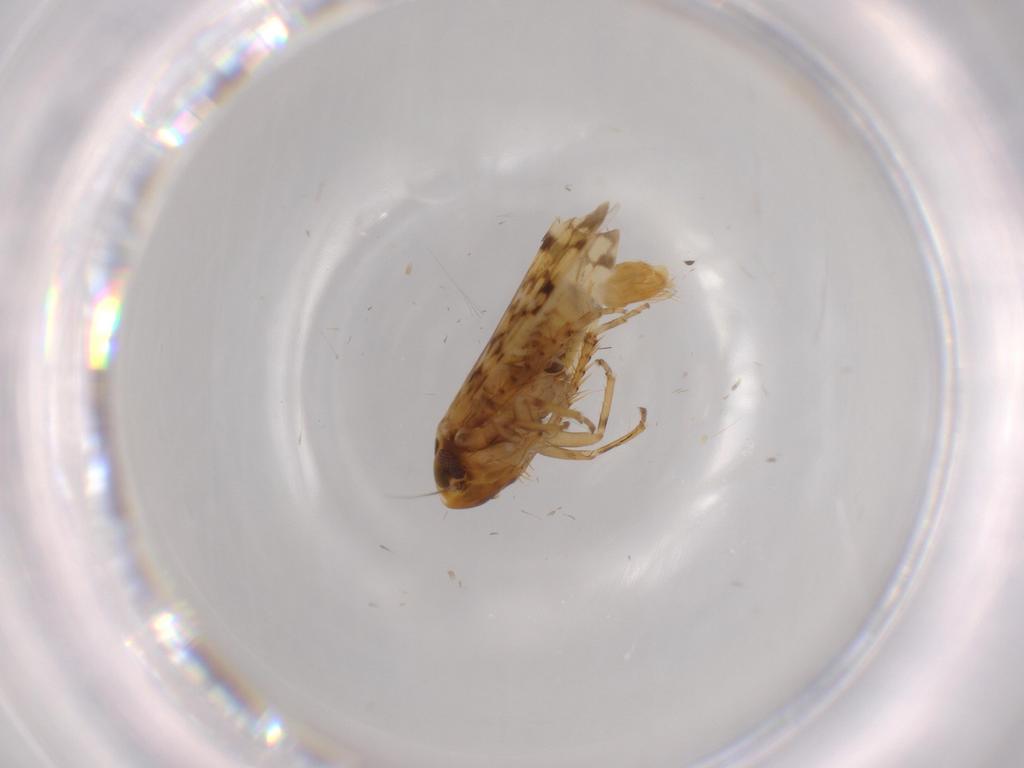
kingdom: Animalia
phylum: Arthropoda
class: Insecta
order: Hemiptera
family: Cicadellidae
